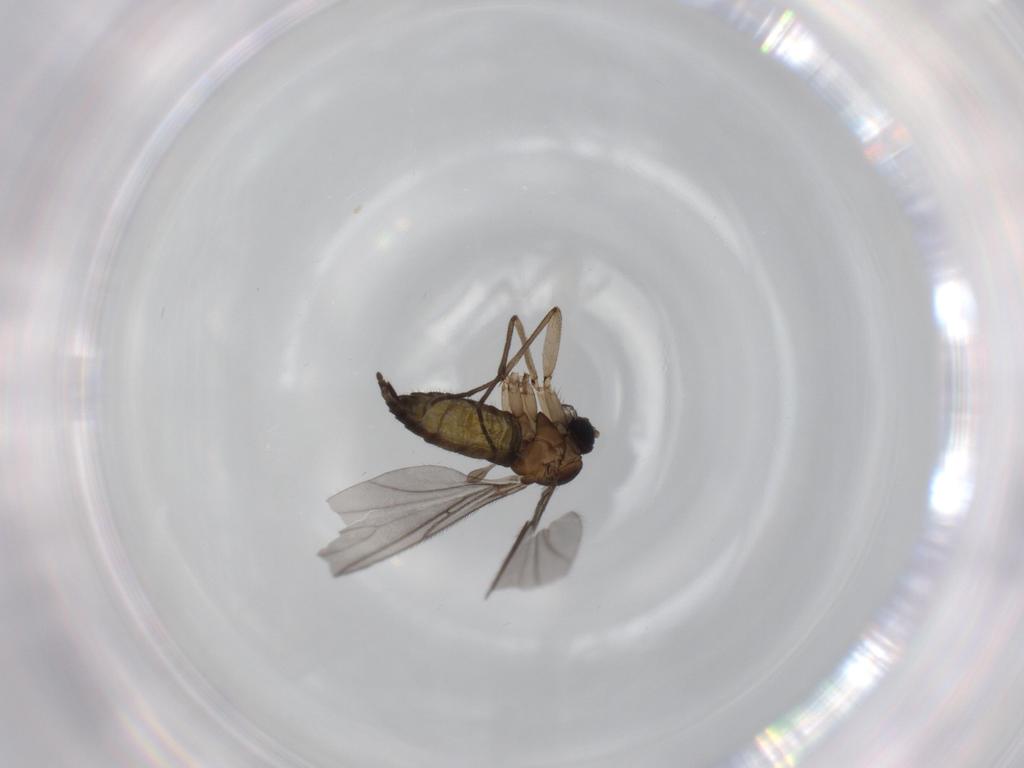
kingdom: Animalia
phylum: Arthropoda
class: Insecta
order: Diptera
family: Sciaridae
